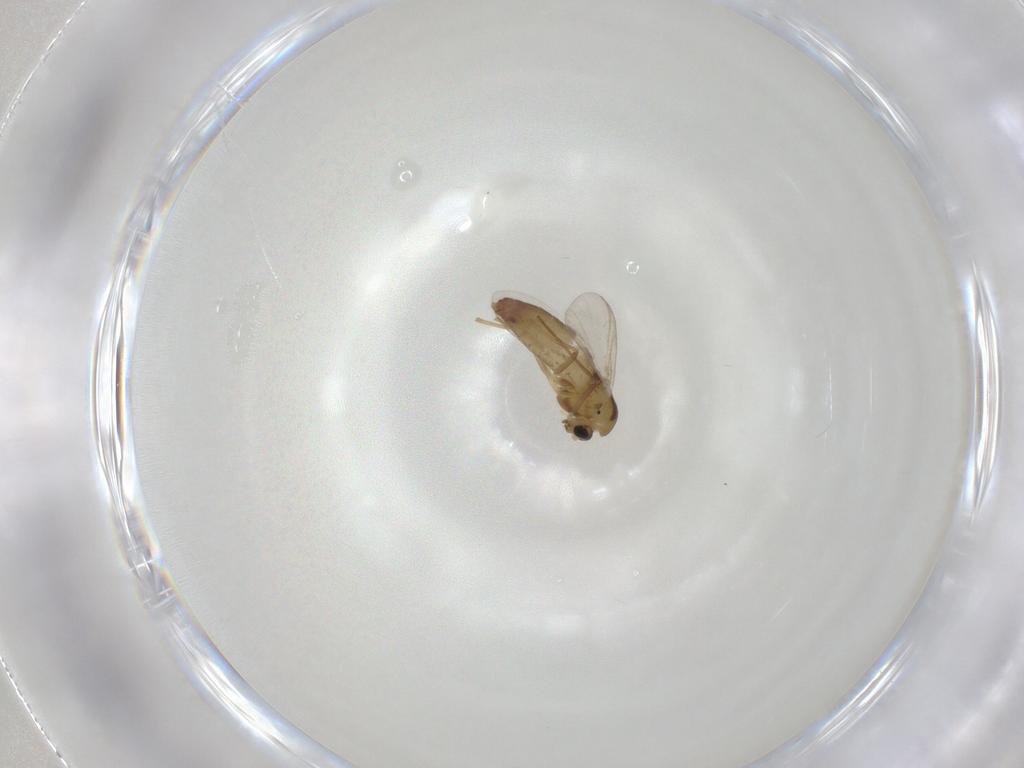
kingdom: Animalia
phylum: Arthropoda
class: Insecta
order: Diptera
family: Chironomidae
